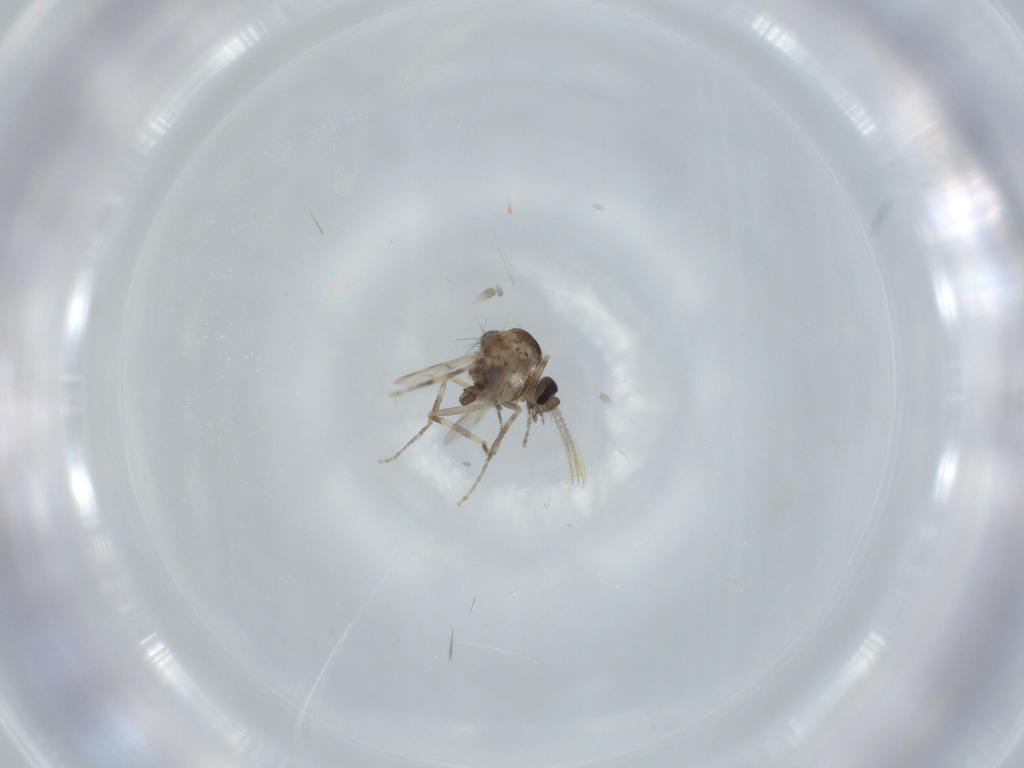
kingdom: Animalia
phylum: Arthropoda
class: Insecta
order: Diptera
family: Ceratopogonidae
